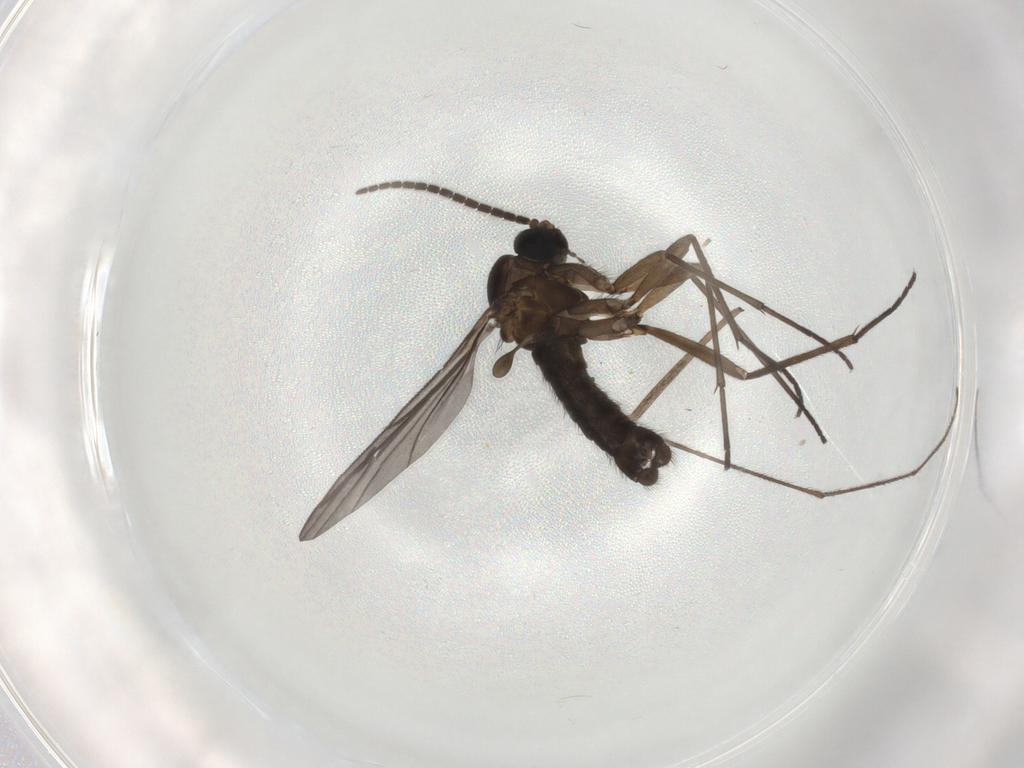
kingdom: Animalia
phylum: Arthropoda
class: Insecta
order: Diptera
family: Sciaridae
